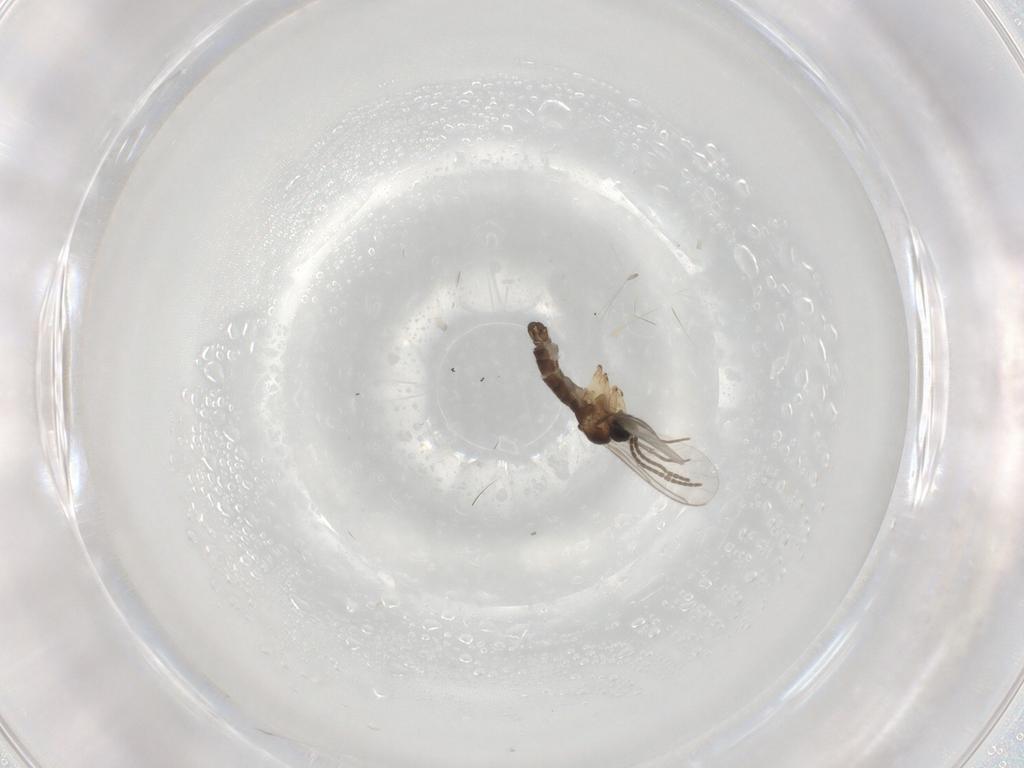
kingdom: Animalia
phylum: Arthropoda
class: Insecta
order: Diptera
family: Sciaridae
